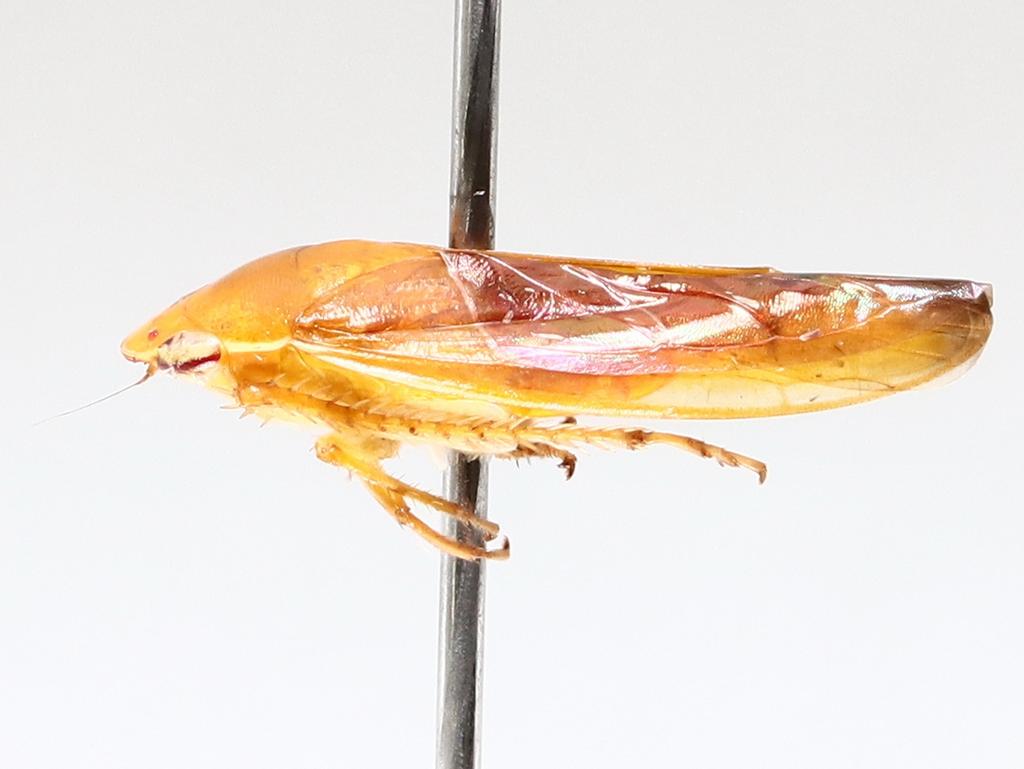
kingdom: Animalia
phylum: Arthropoda
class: Insecta
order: Diptera
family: Cecidomyiidae
